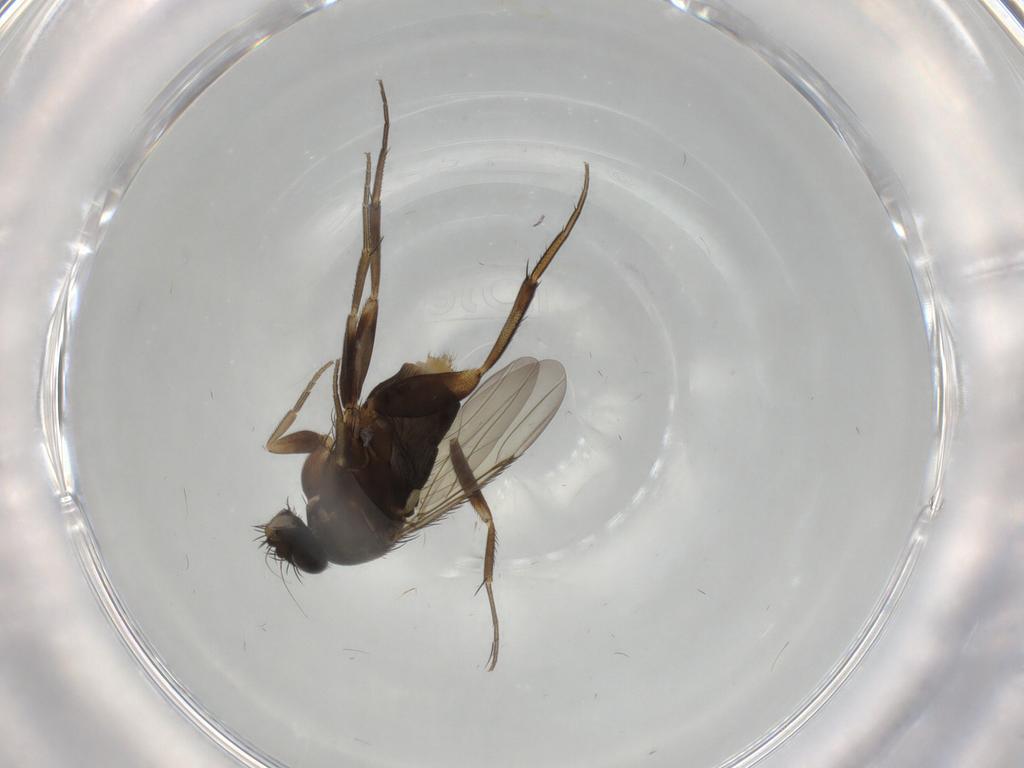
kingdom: Animalia
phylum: Arthropoda
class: Insecta
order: Diptera
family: Phoridae
